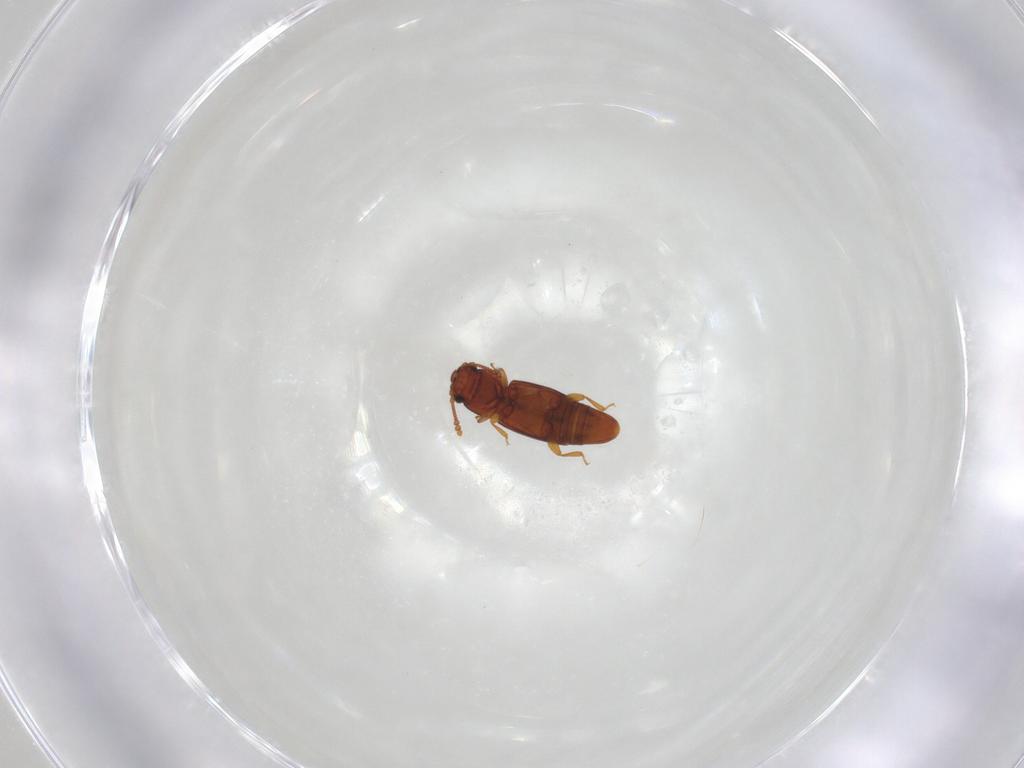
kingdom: Animalia
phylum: Arthropoda
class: Insecta
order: Coleoptera
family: Smicripidae
